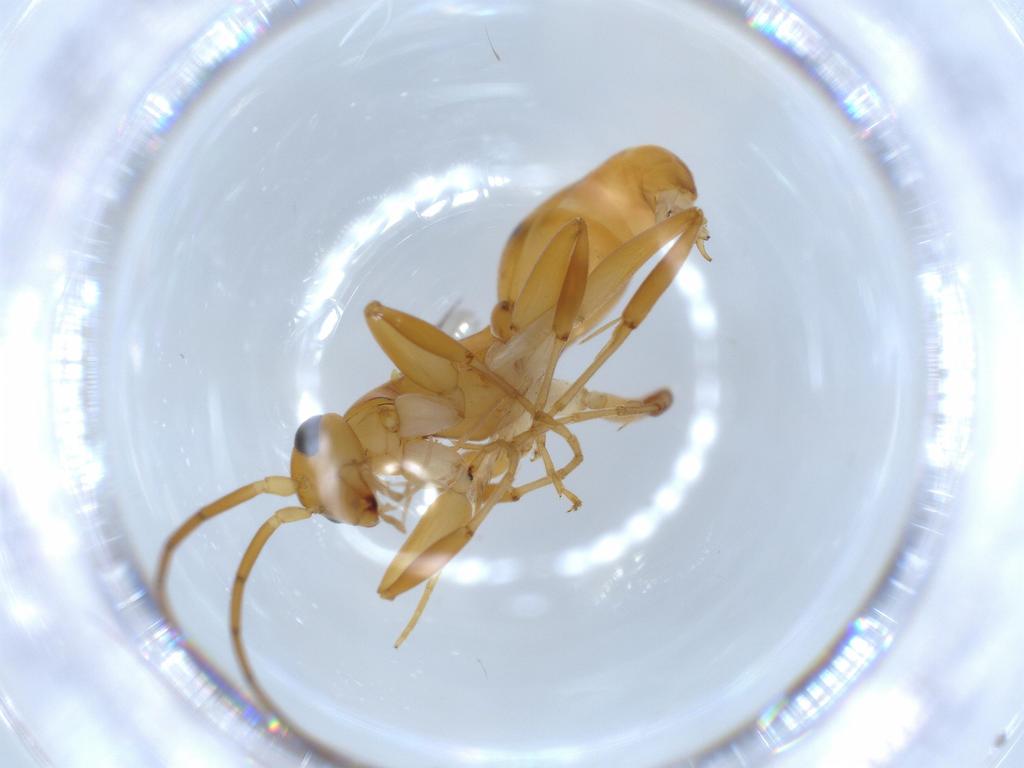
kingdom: Animalia
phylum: Arthropoda
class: Insecta
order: Hymenoptera
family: Rhopalosomatidae
